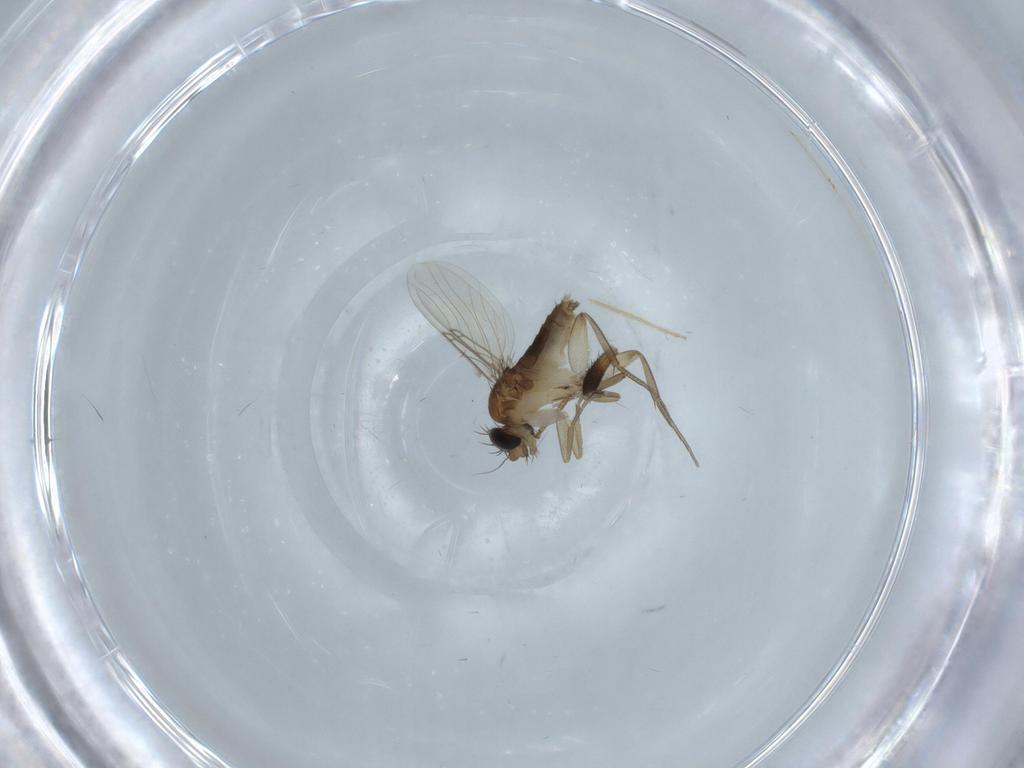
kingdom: Animalia
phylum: Arthropoda
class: Insecta
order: Diptera
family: Phoridae
